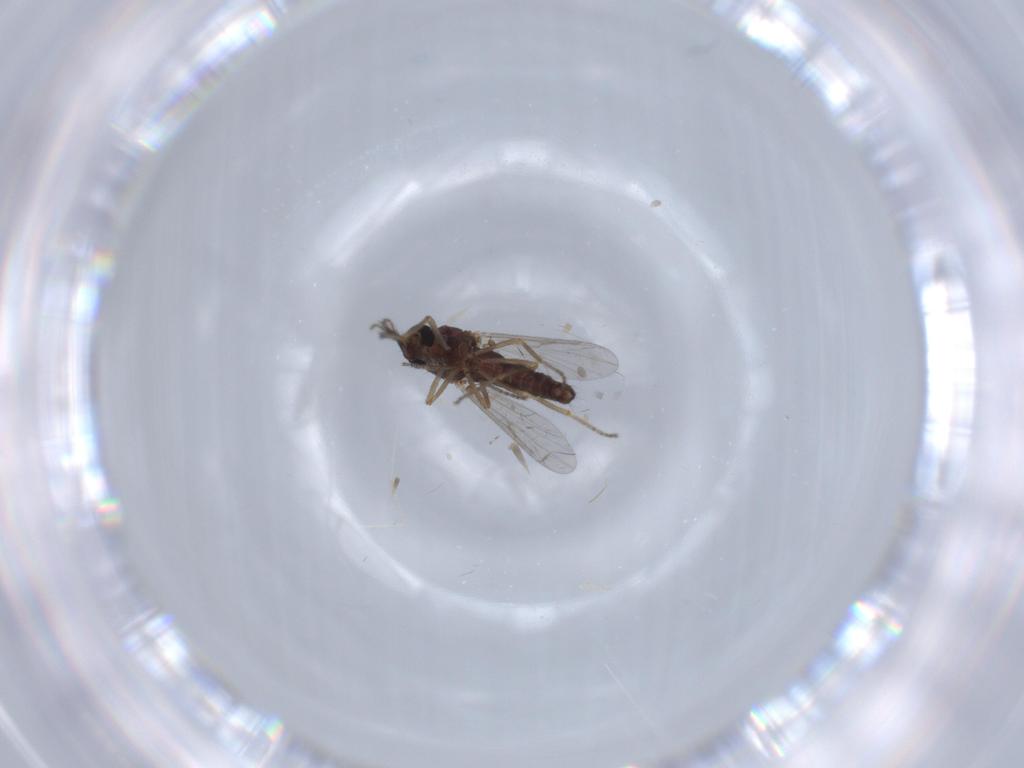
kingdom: Animalia
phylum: Arthropoda
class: Insecta
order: Diptera
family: Ceratopogonidae
